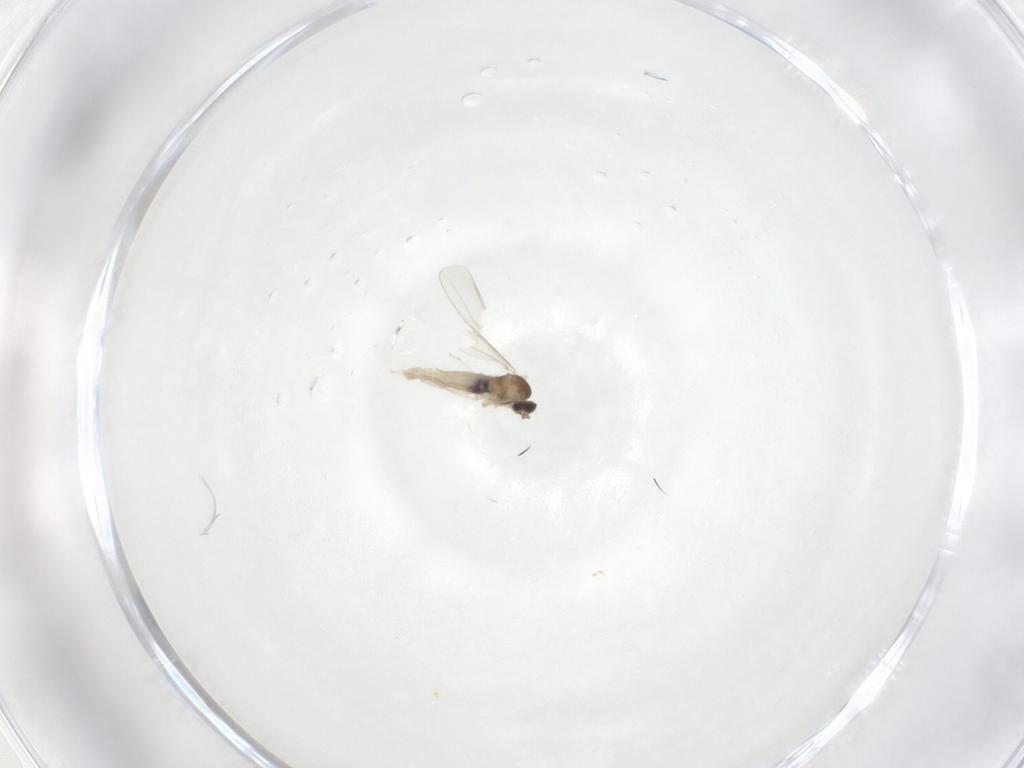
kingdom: Animalia
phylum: Arthropoda
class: Insecta
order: Diptera
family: Cecidomyiidae
